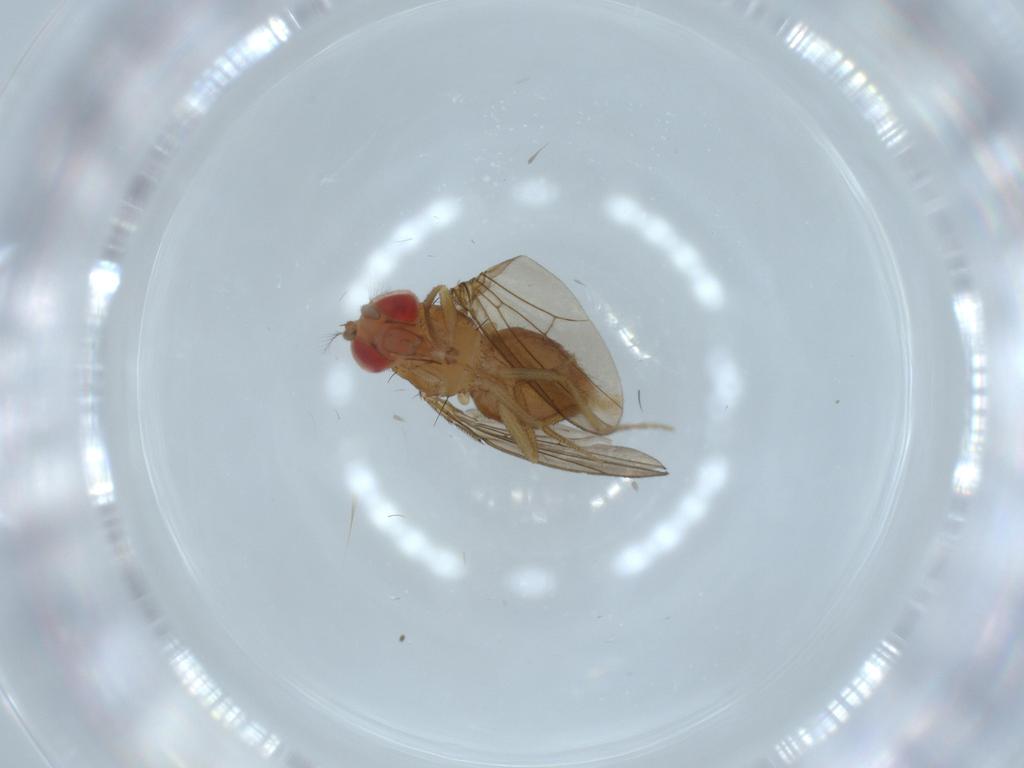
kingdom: Animalia
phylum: Arthropoda
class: Insecta
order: Diptera
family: Drosophilidae
